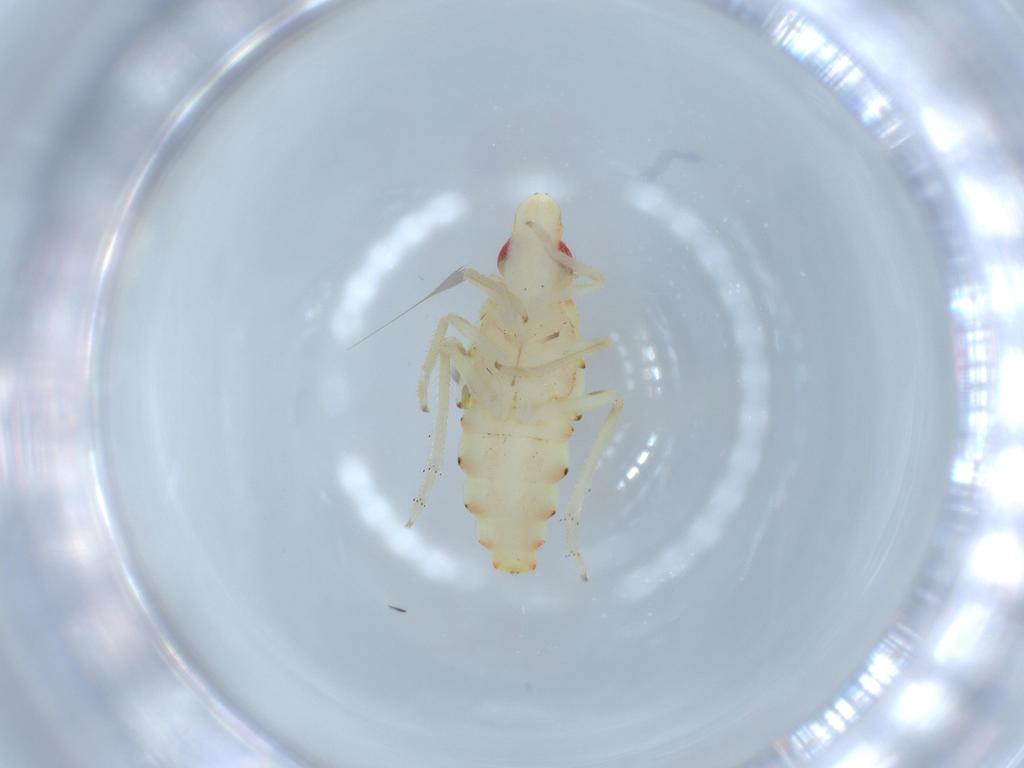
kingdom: Animalia
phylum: Arthropoda
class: Insecta
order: Hemiptera
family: Tropiduchidae
